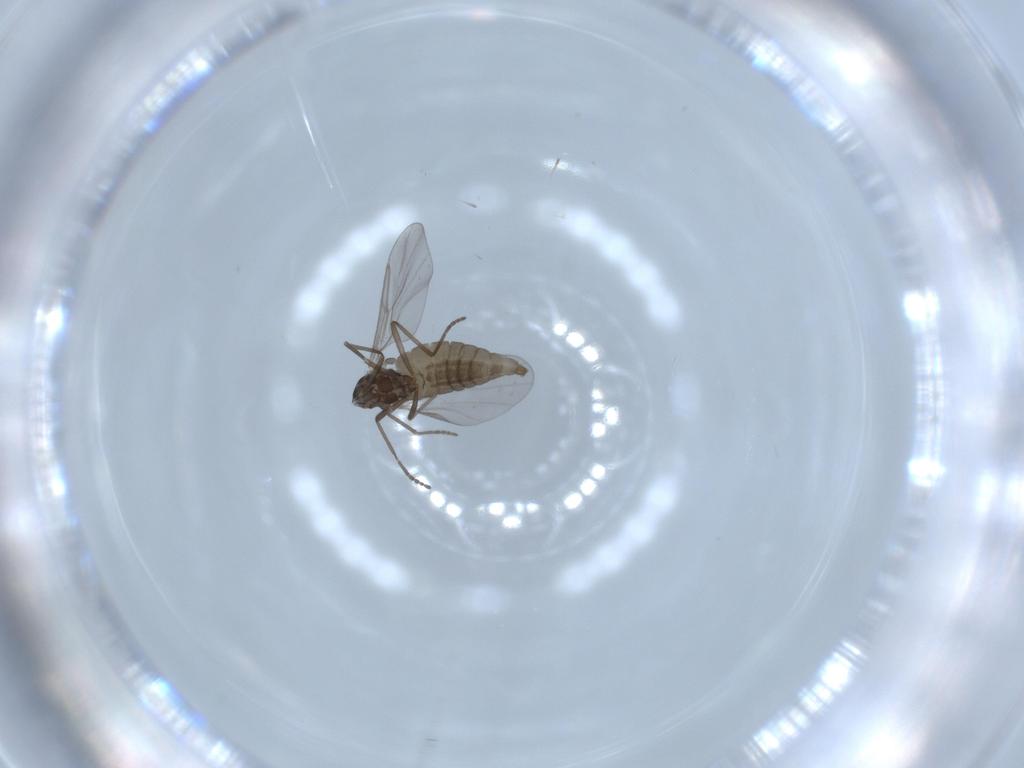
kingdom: Animalia
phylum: Arthropoda
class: Insecta
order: Diptera
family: Cecidomyiidae
